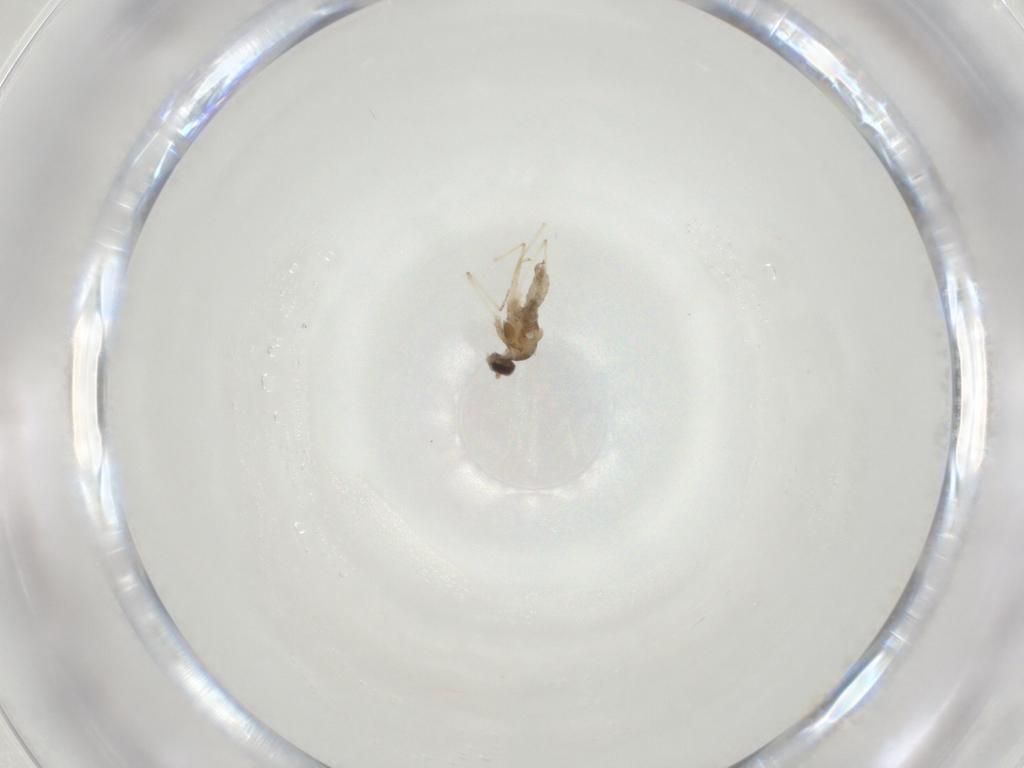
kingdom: Animalia
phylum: Arthropoda
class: Insecta
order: Diptera
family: Cecidomyiidae
